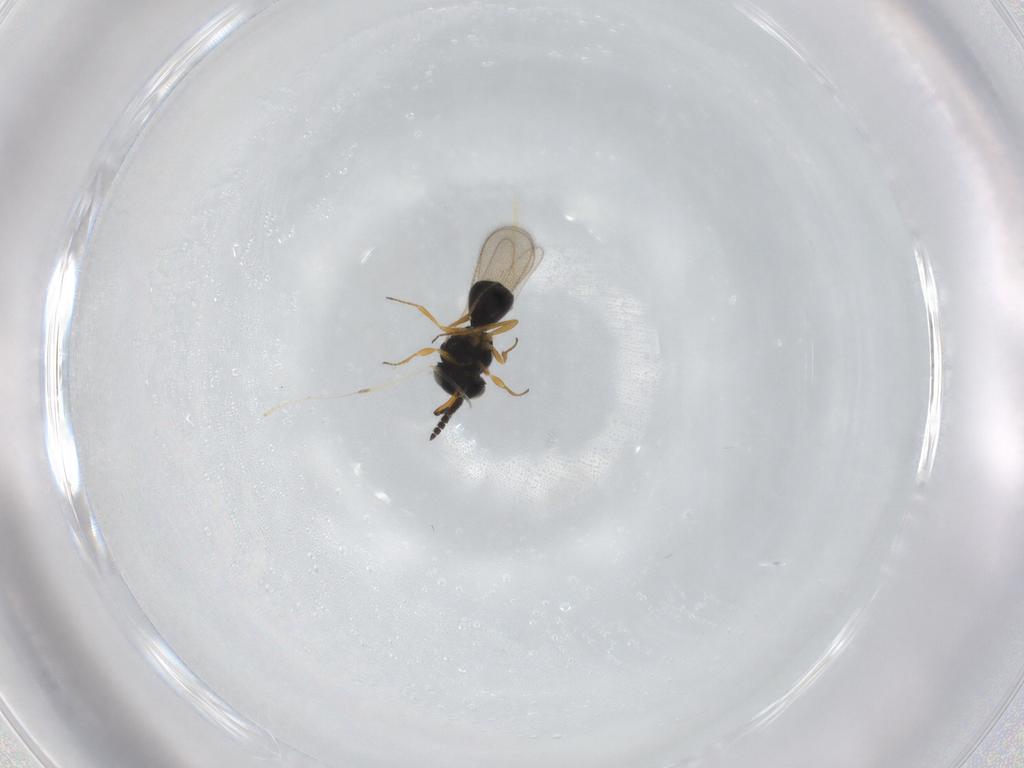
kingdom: Animalia
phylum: Arthropoda
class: Insecta
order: Hymenoptera
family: Scelionidae
